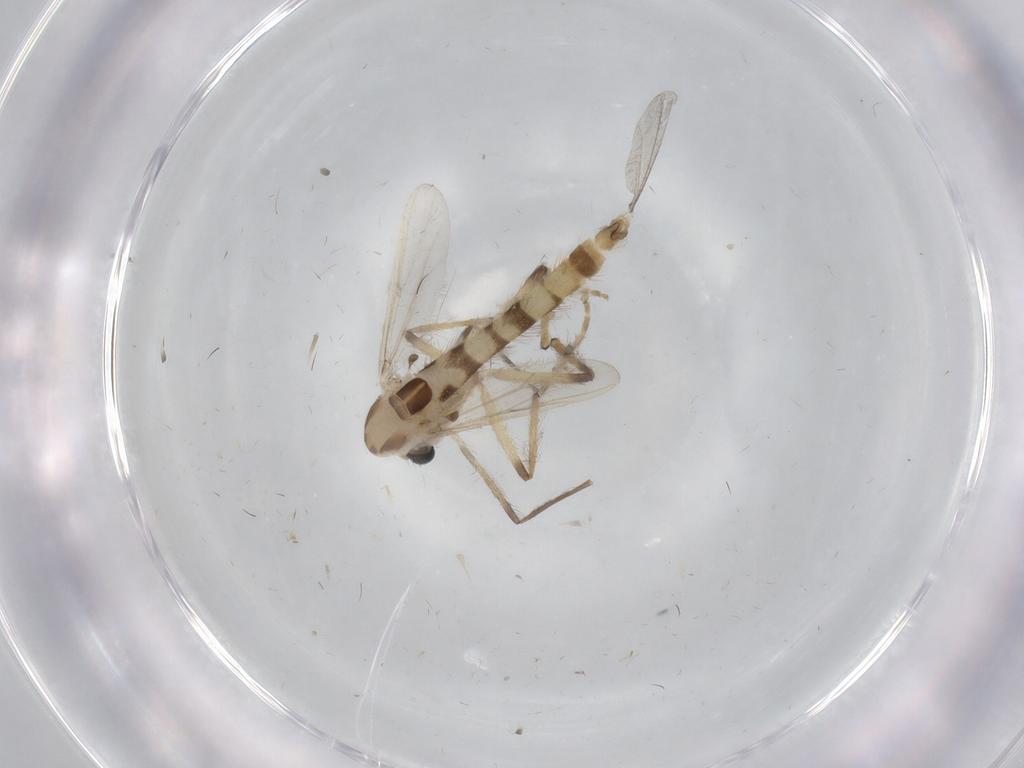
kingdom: Animalia
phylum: Arthropoda
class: Insecta
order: Diptera
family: Chironomidae
